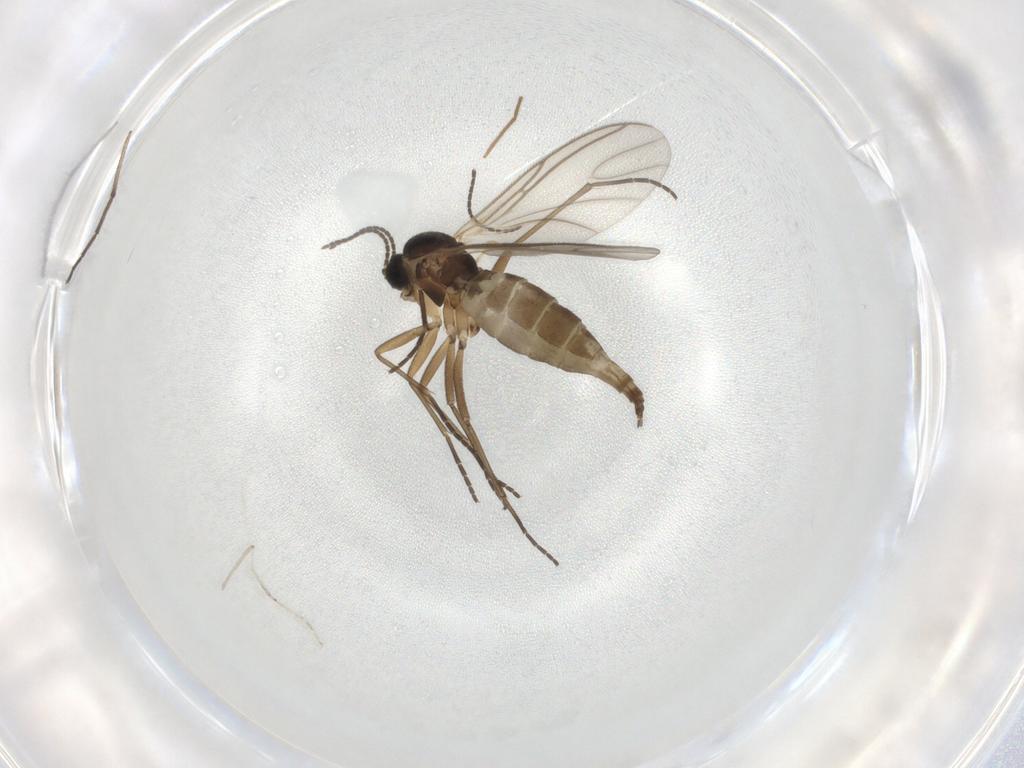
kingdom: Animalia
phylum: Arthropoda
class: Insecta
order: Diptera
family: Chironomidae
